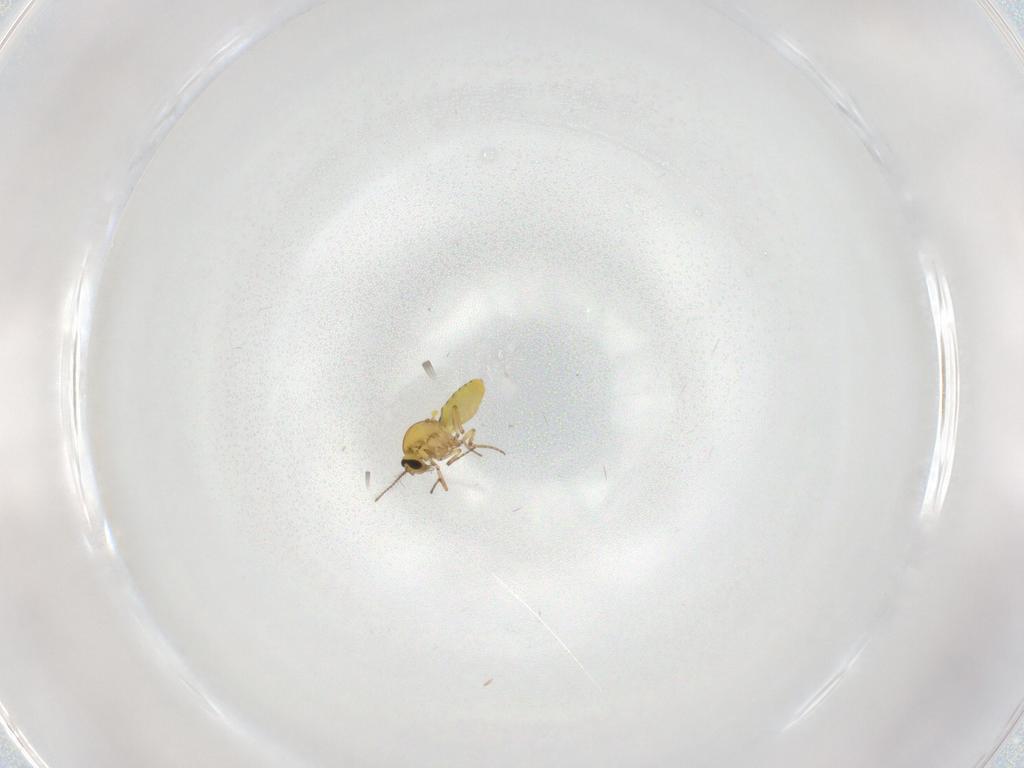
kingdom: Animalia
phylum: Arthropoda
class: Insecta
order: Diptera
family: Ceratopogonidae
